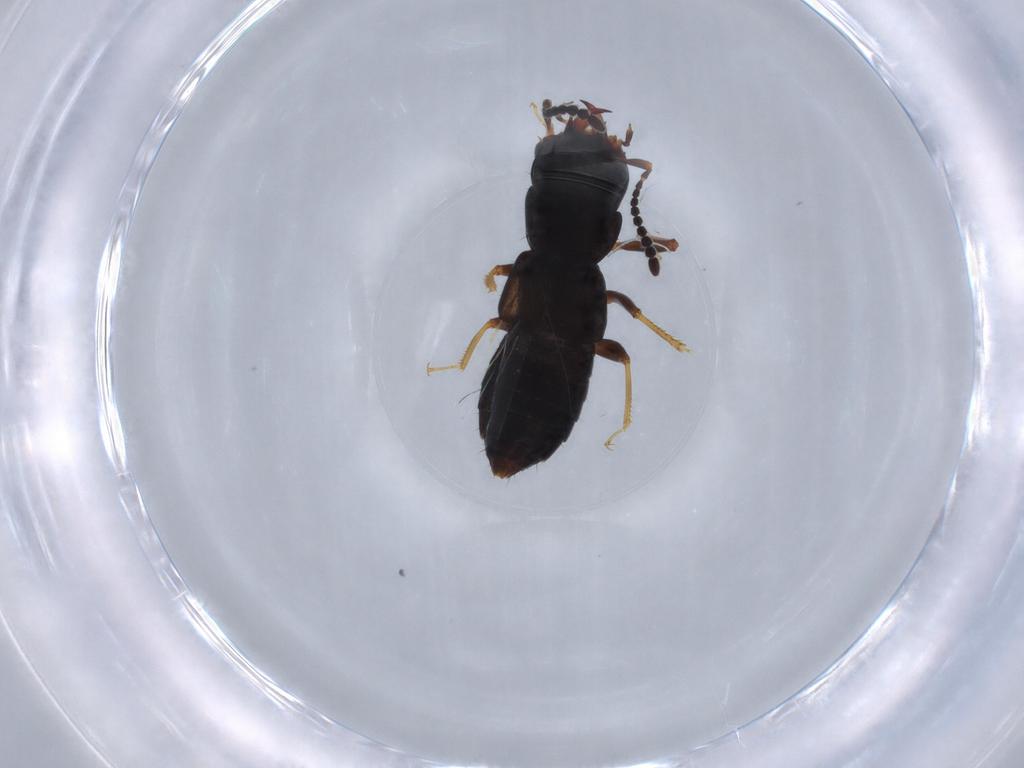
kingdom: Animalia
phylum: Arthropoda
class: Insecta
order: Coleoptera
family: Staphylinidae
